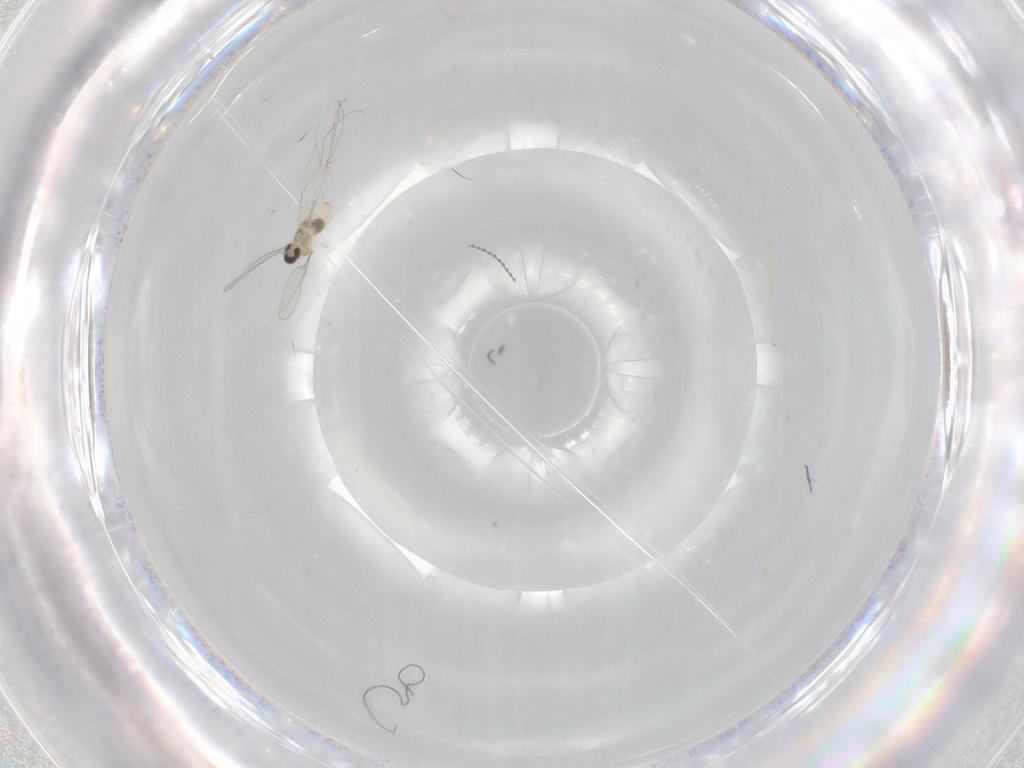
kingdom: Animalia
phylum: Arthropoda
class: Insecta
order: Diptera
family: Cecidomyiidae
